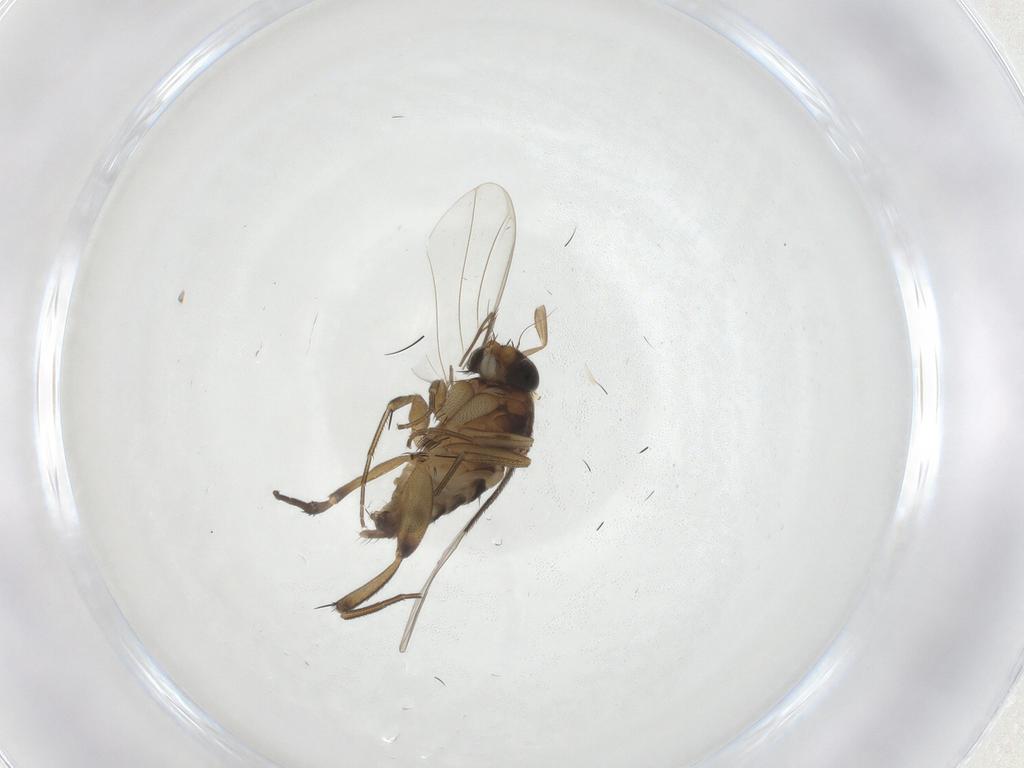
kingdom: Animalia
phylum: Arthropoda
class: Insecta
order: Diptera
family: Phoridae
